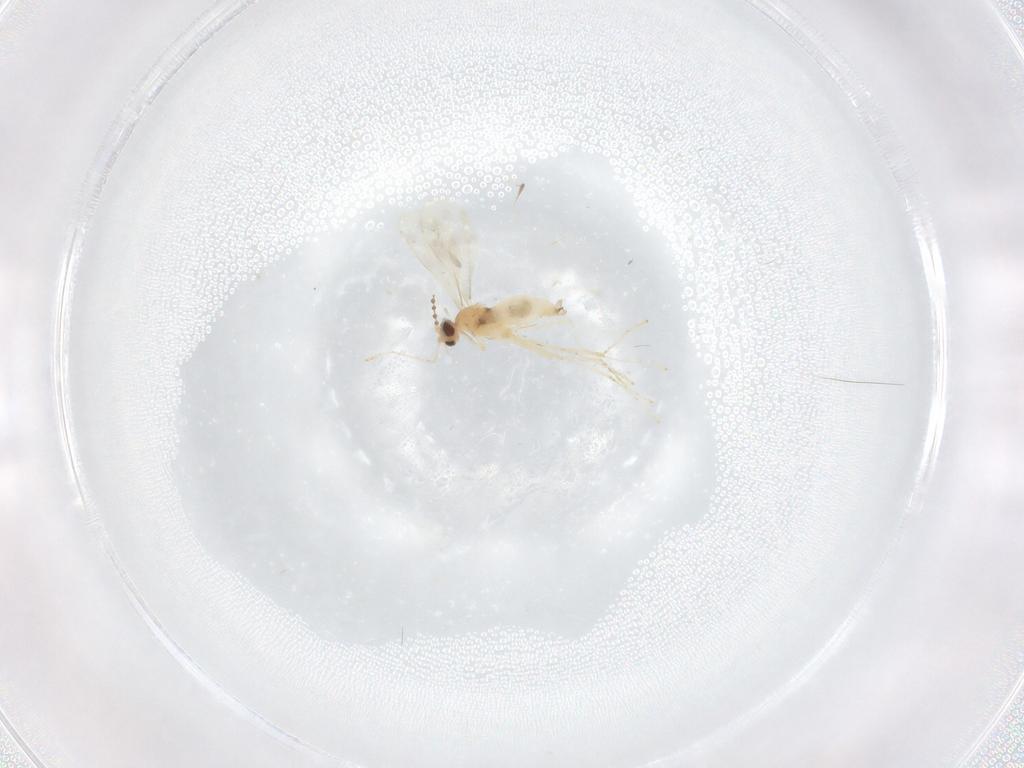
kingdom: Animalia
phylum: Arthropoda
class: Insecta
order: Diptera
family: Cecidomyiidae
